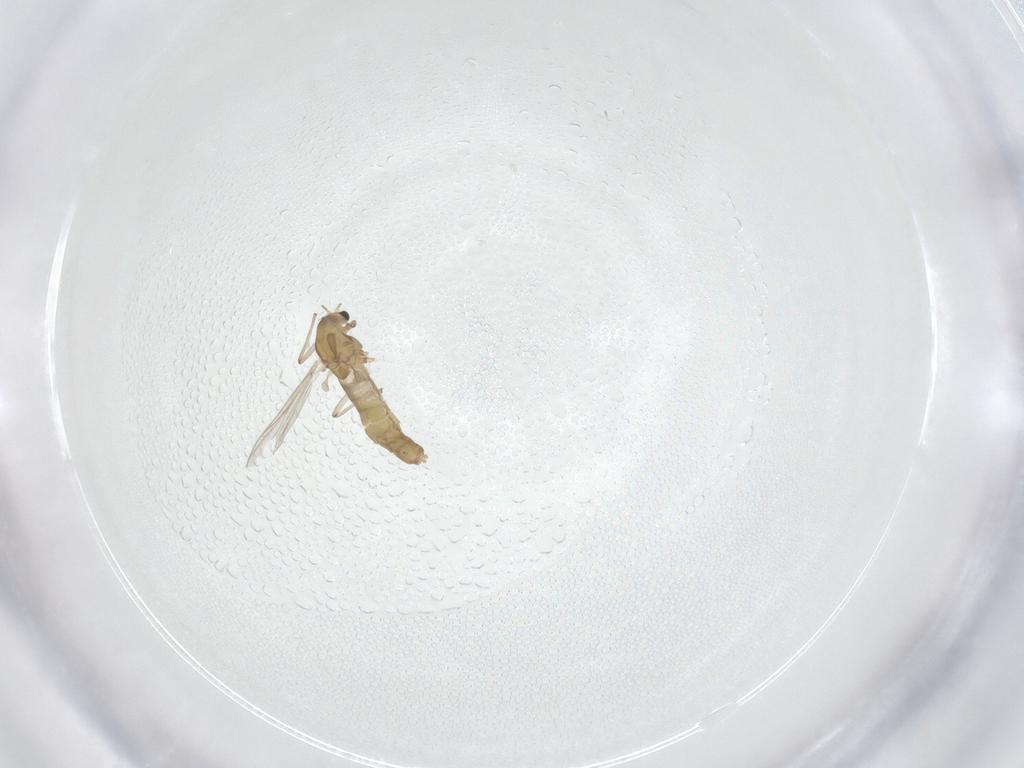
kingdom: Animalia
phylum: Arthropoda
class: Insecta
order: Diptera
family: Chironomidae
